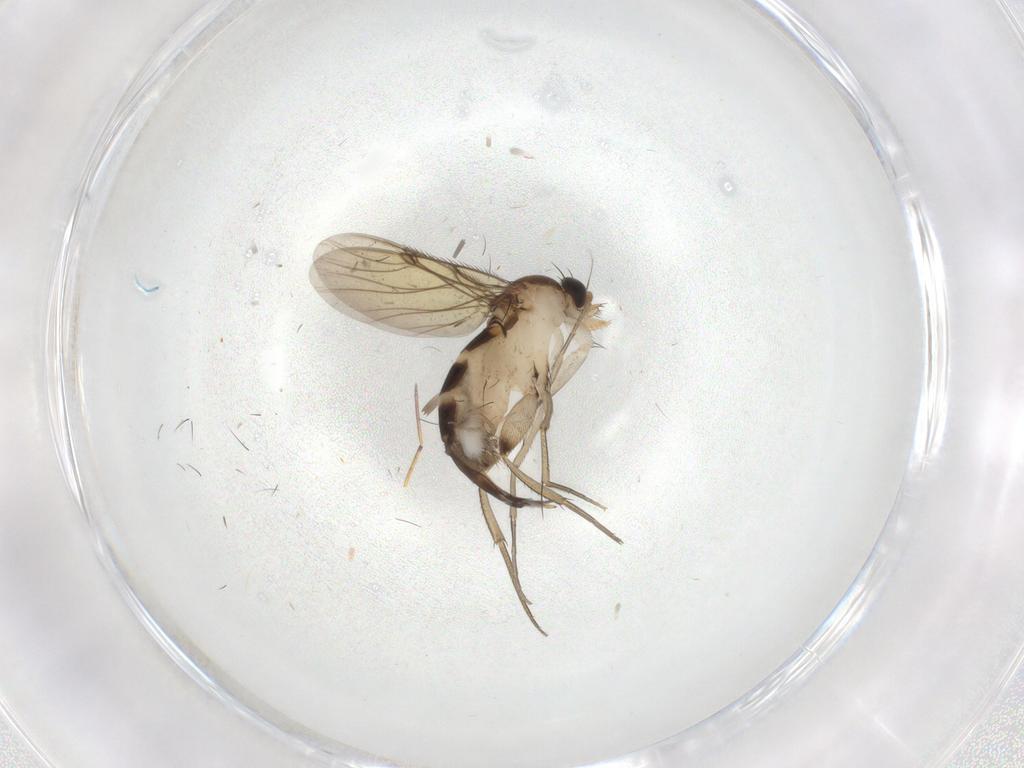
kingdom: Animalia
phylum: Arthropoda
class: Insecta
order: Diptera
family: Phoridae
